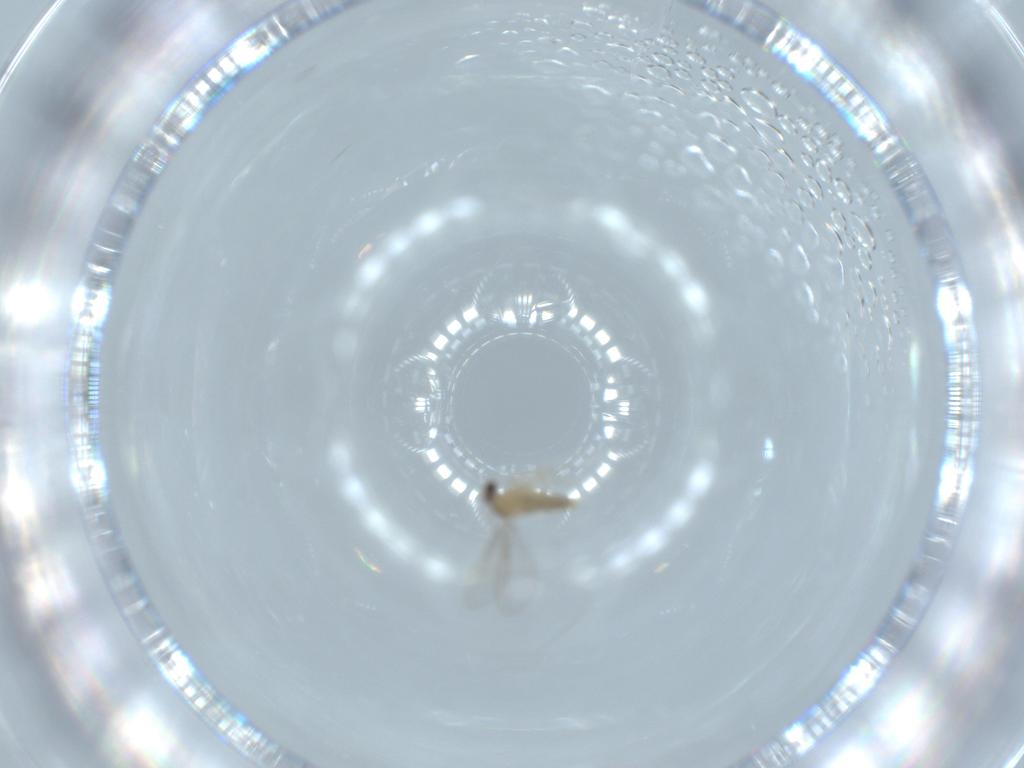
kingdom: Animalia
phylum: Arthropoda
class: Insecta
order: Diptera
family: Cecidomyiidae
